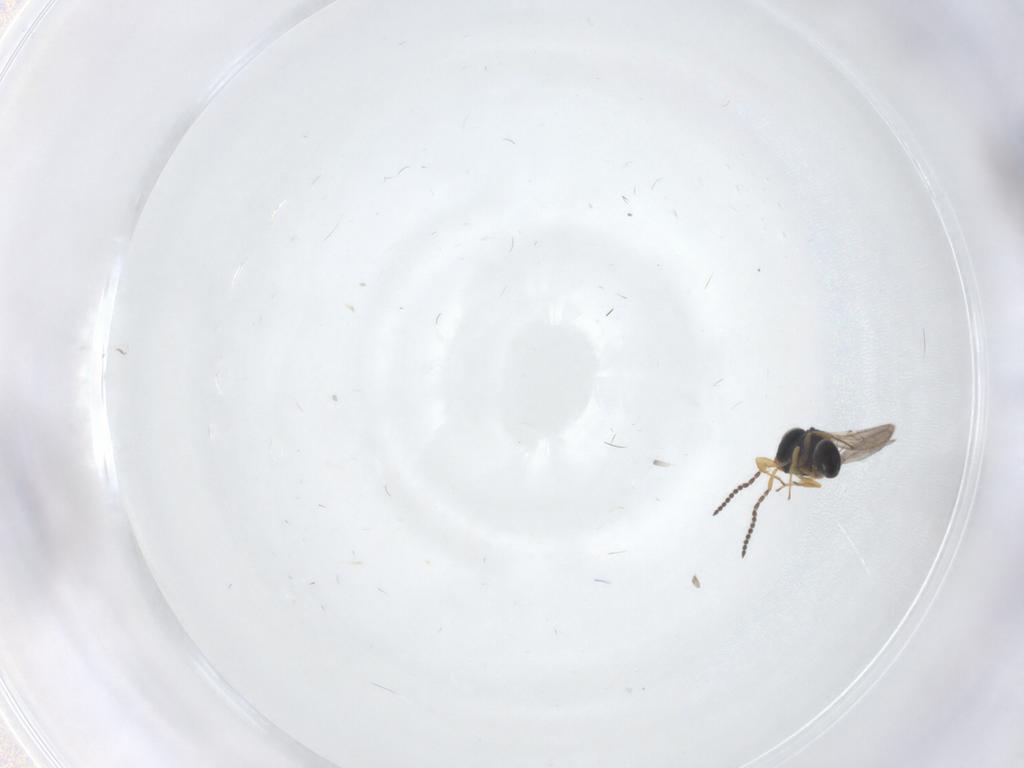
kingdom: Animalia
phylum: Arthropoda
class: Insecta
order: Hymenoptera
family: Scelionidae
